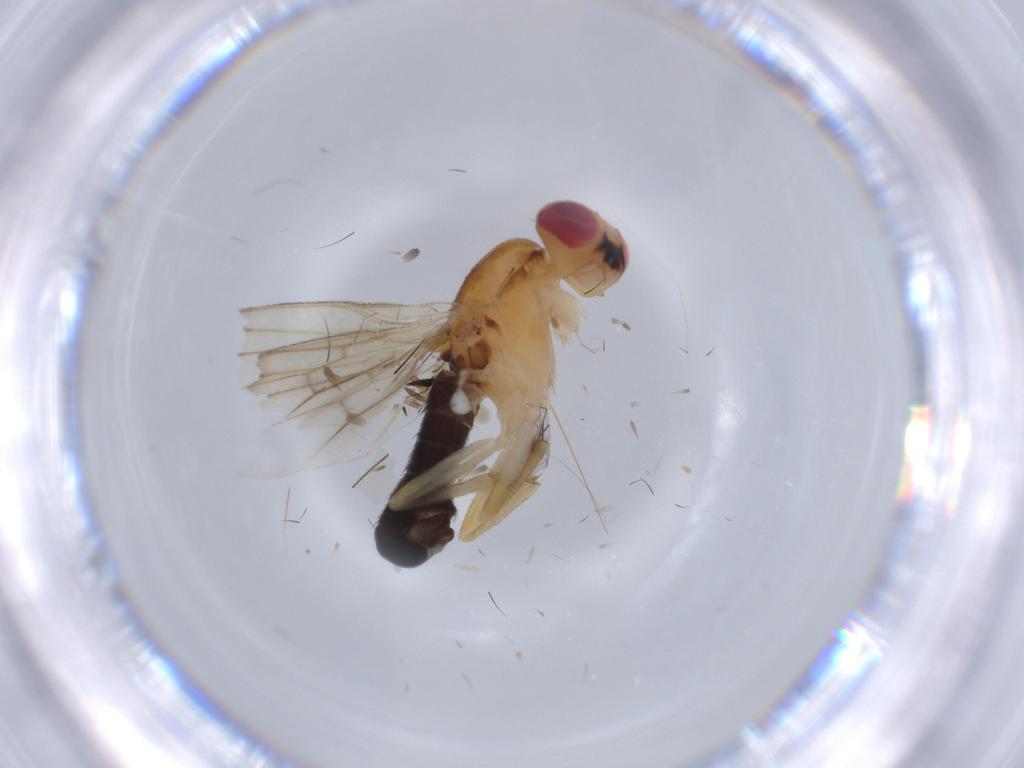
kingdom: Animalia
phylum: Arthropoda
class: Insecta
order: Diptera
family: Clusiidae
